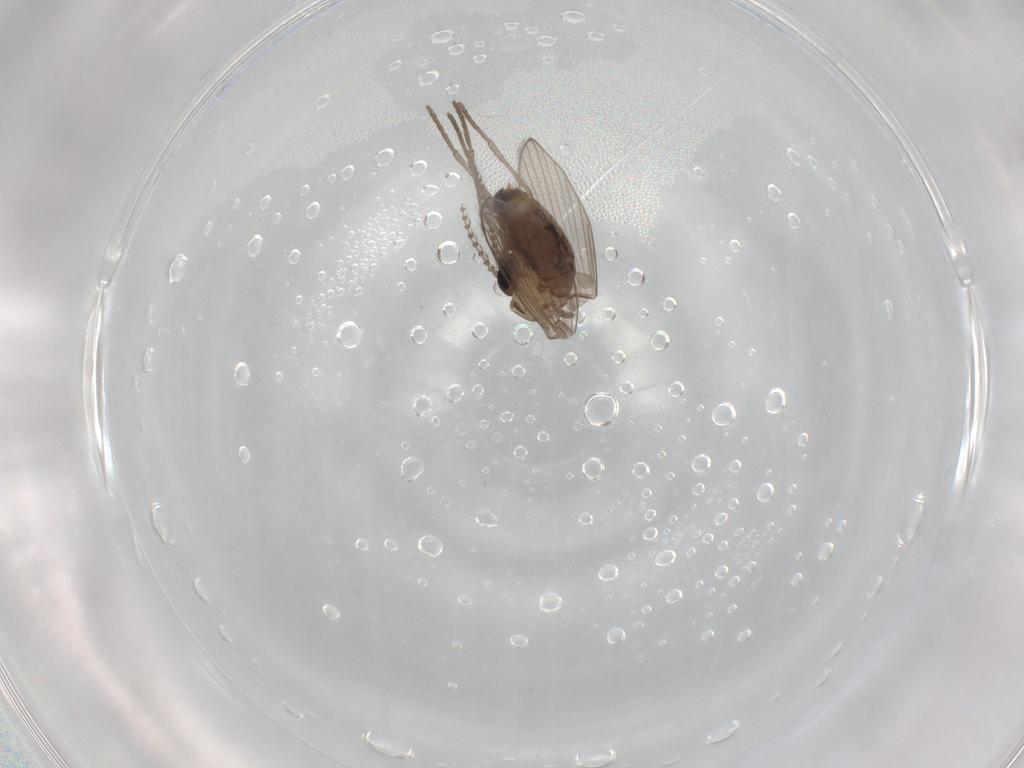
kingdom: Animalia
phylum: Arthropoda
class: Insecta
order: Diptera
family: Psychodidae
